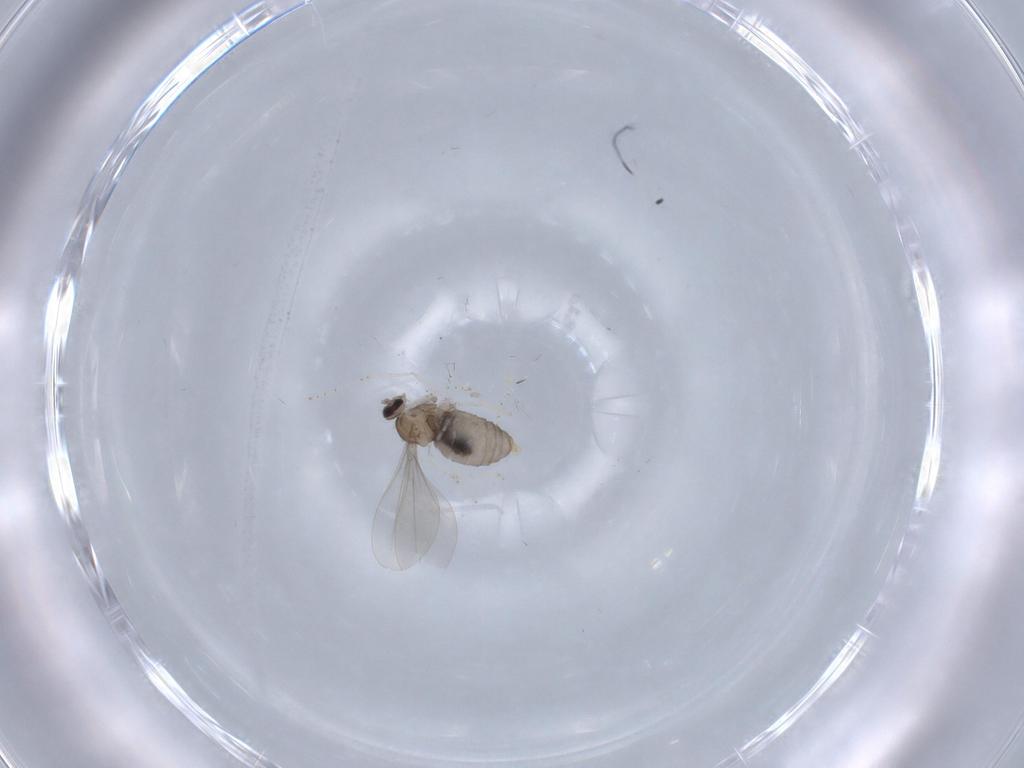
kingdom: Animalia
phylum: Arthropoda
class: Insecta
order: Diptera
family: Cecidomyiidae
